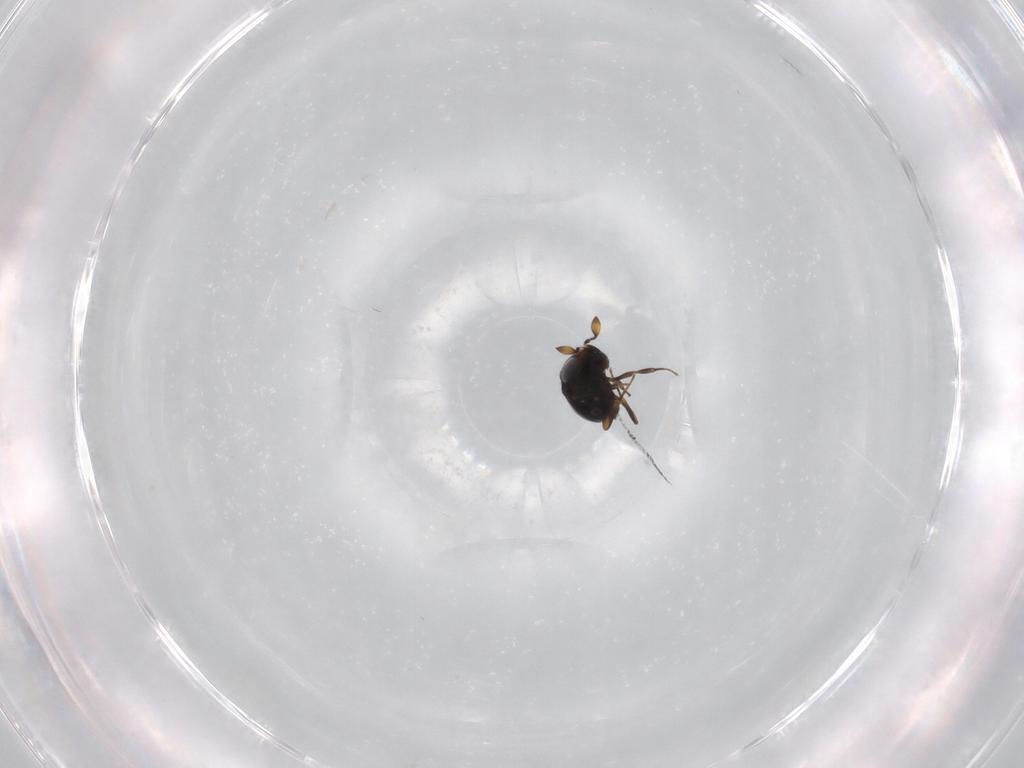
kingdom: Animalia
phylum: Arthropoda
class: Insecta
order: Hymenoptera
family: Scelionidae
